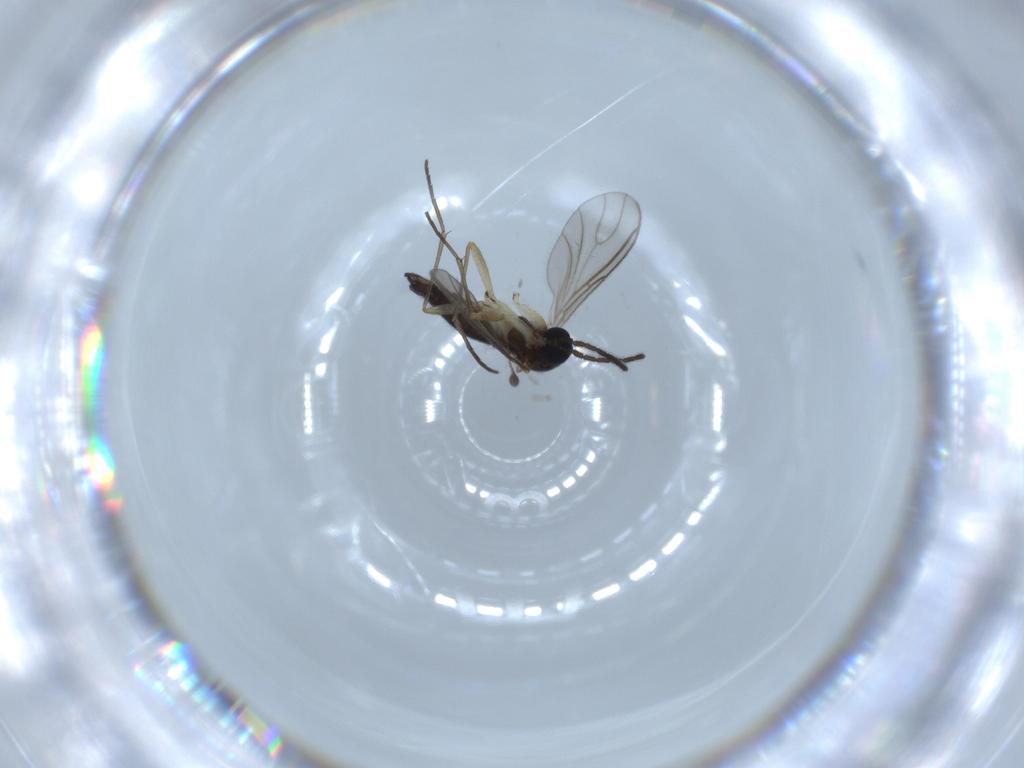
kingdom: Animalia
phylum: Arthropoda
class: Insecta
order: Diptera
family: Sciaridae
